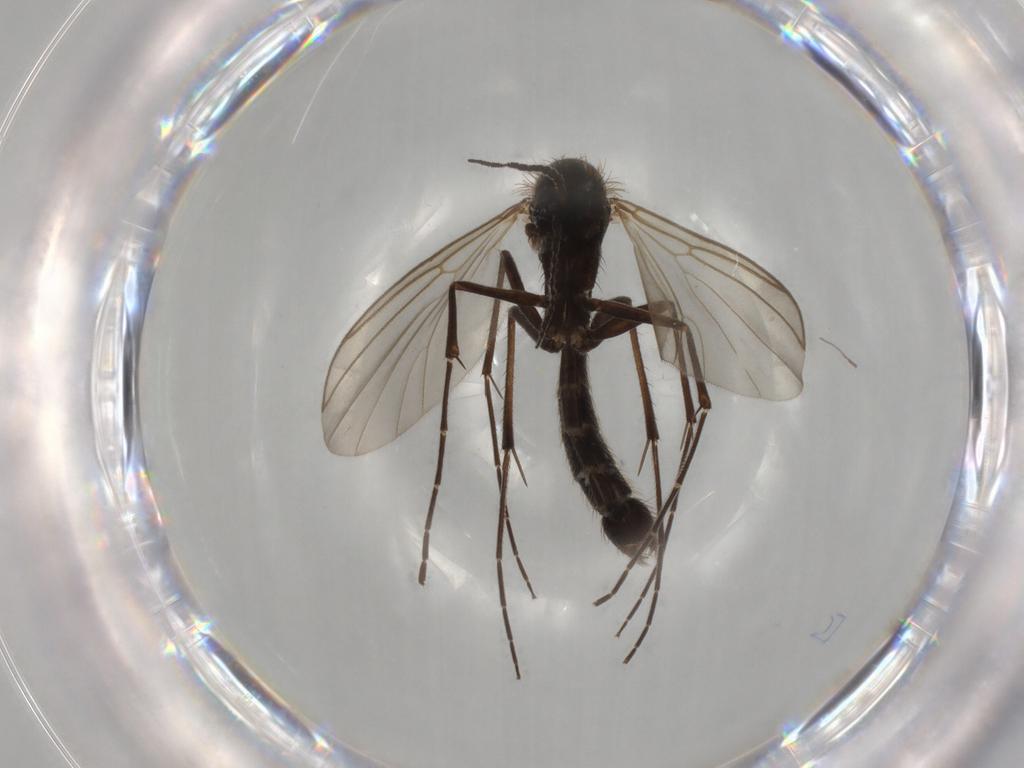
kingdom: Animalia
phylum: Arthropoda
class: Insecta
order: Diptera
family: Mycetophilidae
